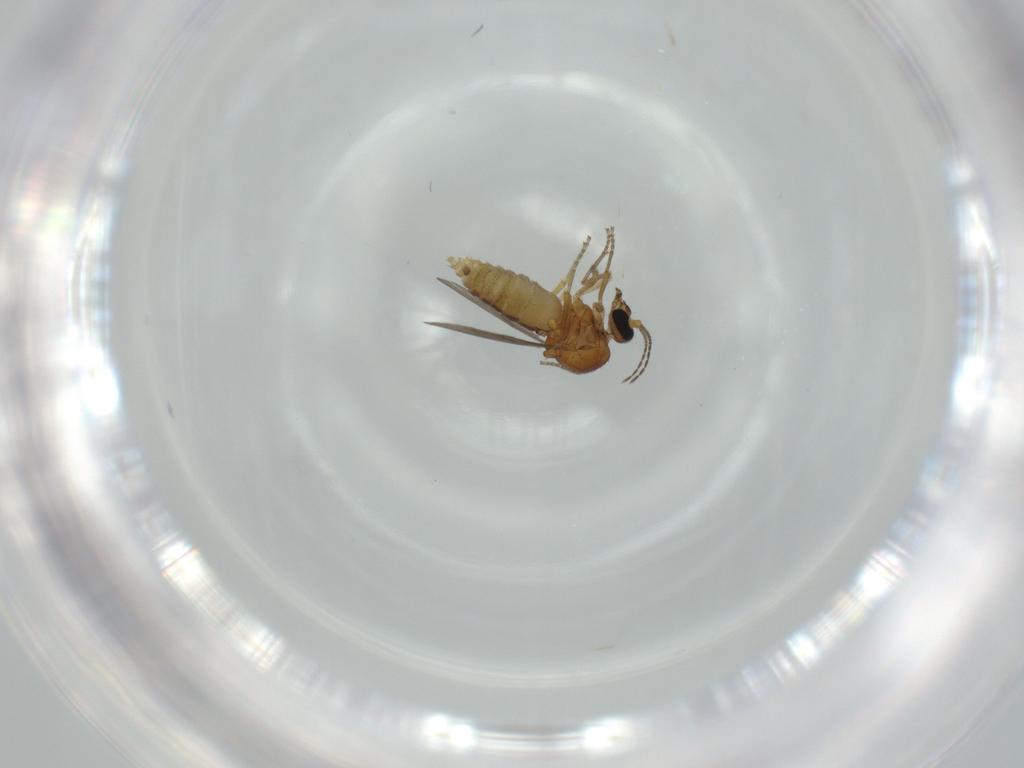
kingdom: Animalia
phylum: Arthropoda
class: Insecta
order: Diptera
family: Ceratopogonidae
